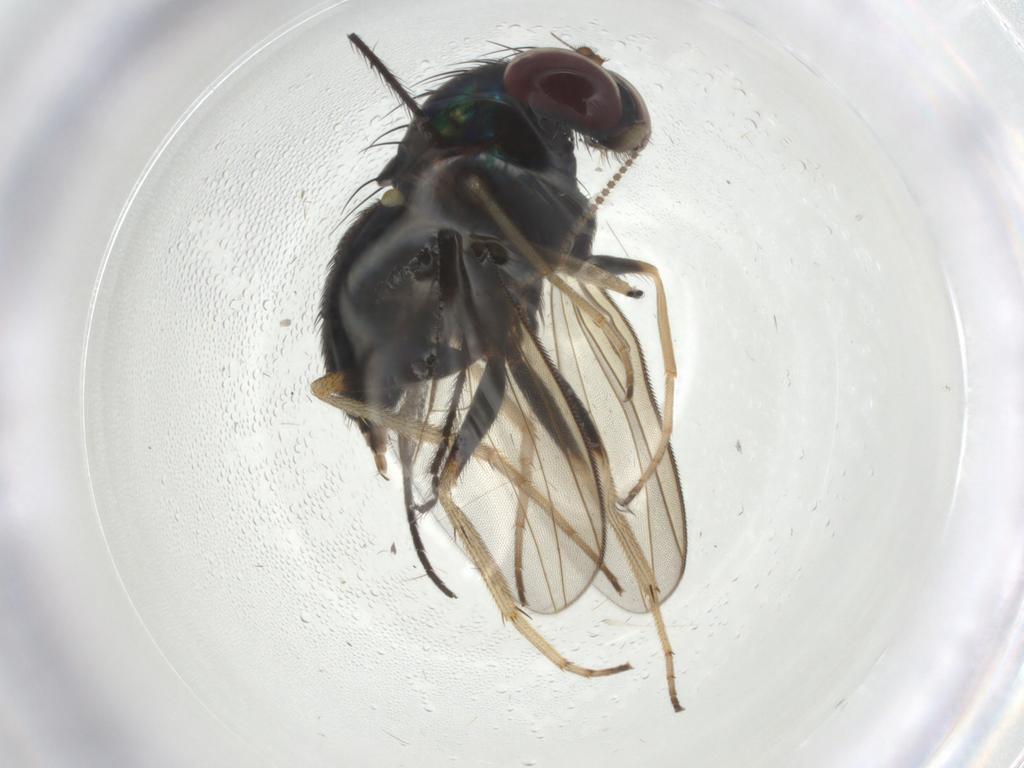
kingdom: Animalia
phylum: Arthropoda
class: Insecta
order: Diptera
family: Dolichopodidae
